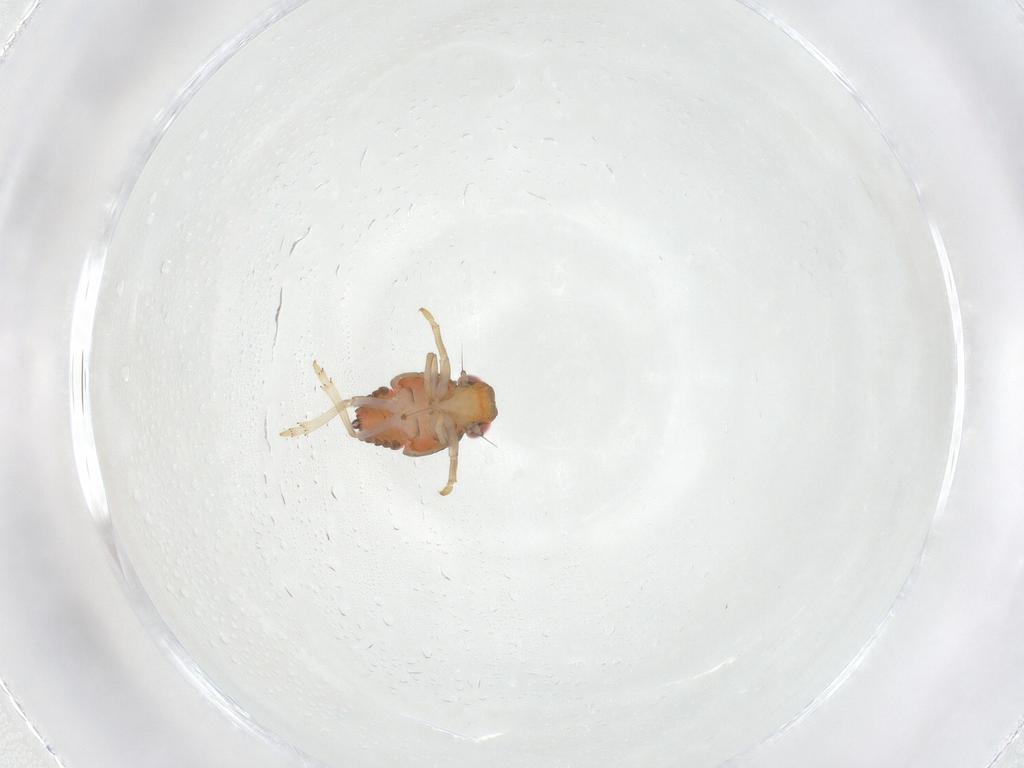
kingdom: Animalia
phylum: Arthropoda
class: Insecta
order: Hemiptera
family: Issidae
